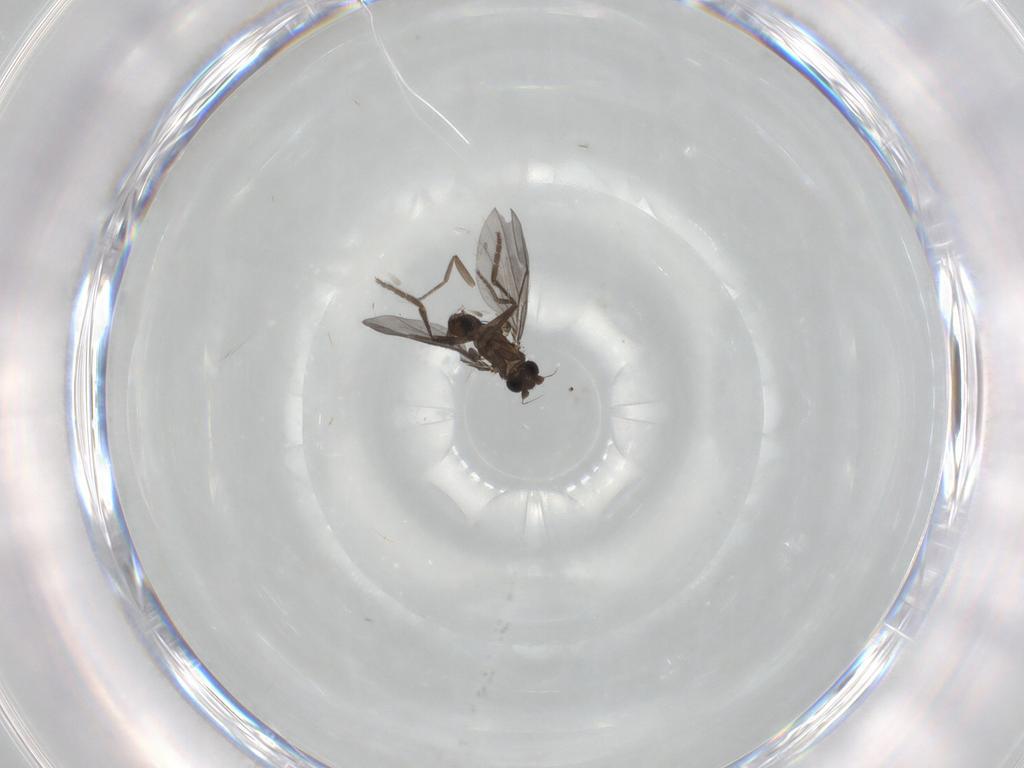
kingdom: Animalia
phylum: Arthropoda
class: Insecta
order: Diptera
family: Phoridae
